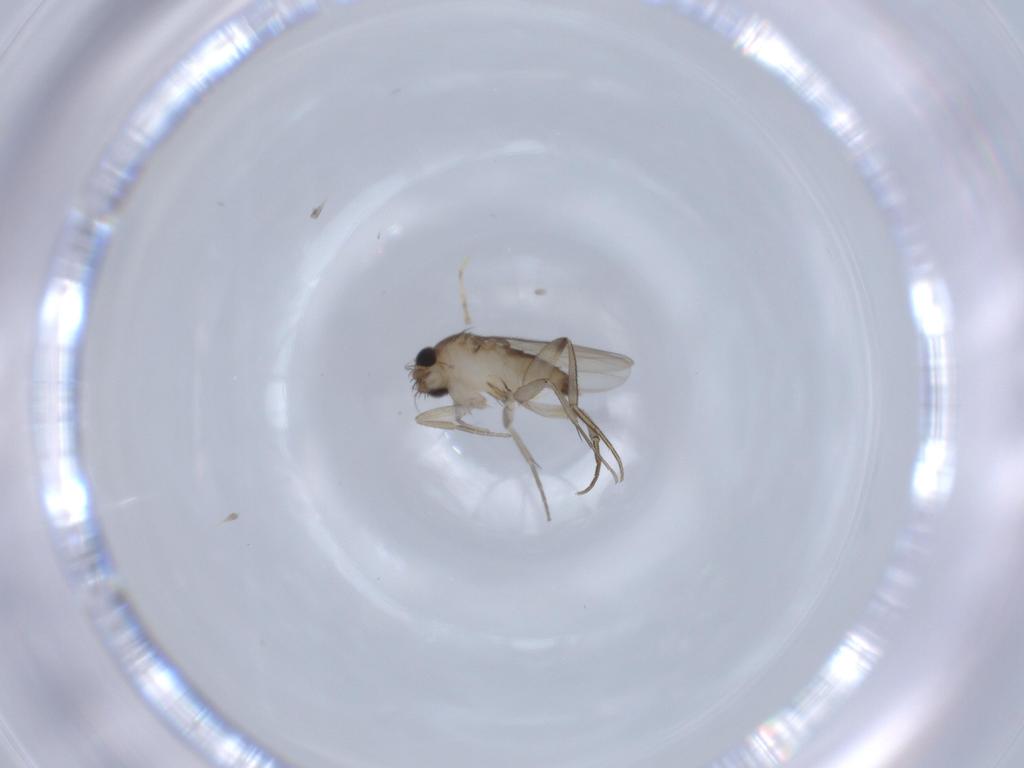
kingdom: Animalia
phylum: Arthropoda
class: Insecta
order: Diptera
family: Phoridae
